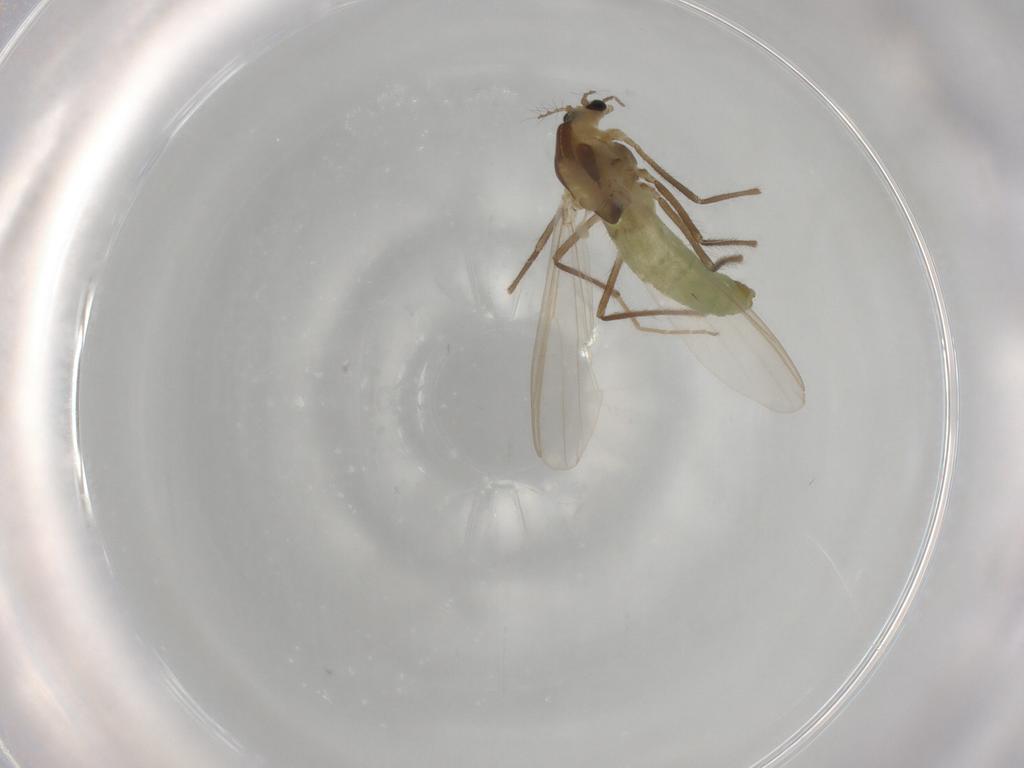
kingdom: Animalia
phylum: Arthropoda
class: Insecta
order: Diptera
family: Chironomidae
